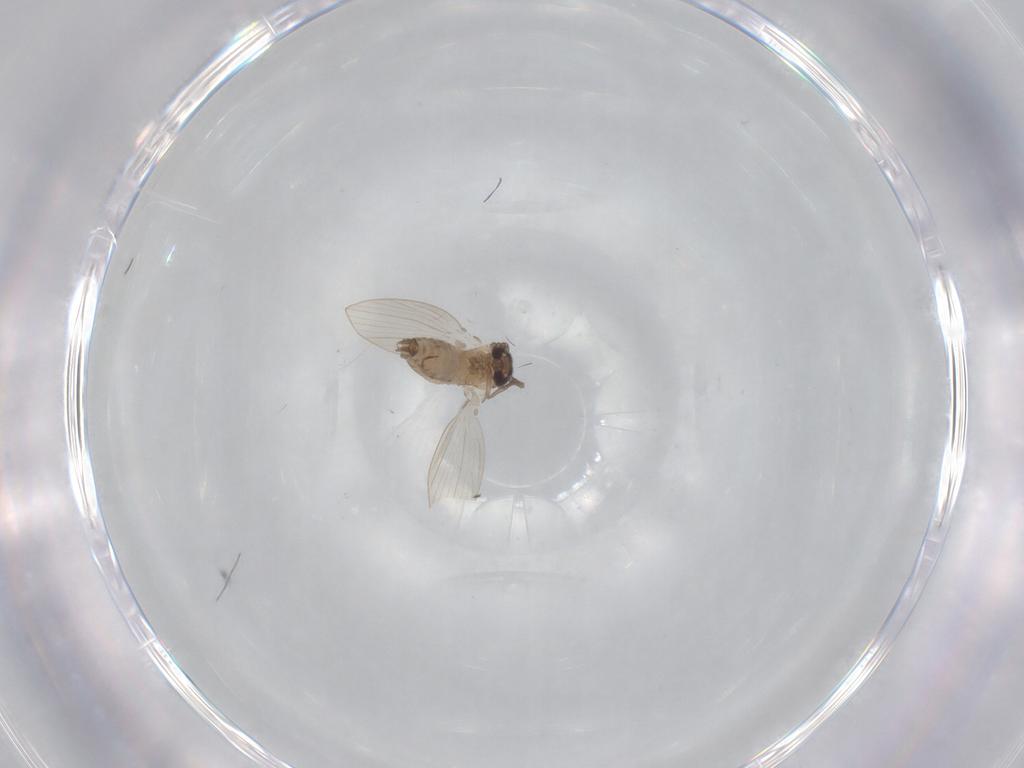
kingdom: Animalia
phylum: Arthropoda
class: Insecta
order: Diptera
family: Psychodidae
